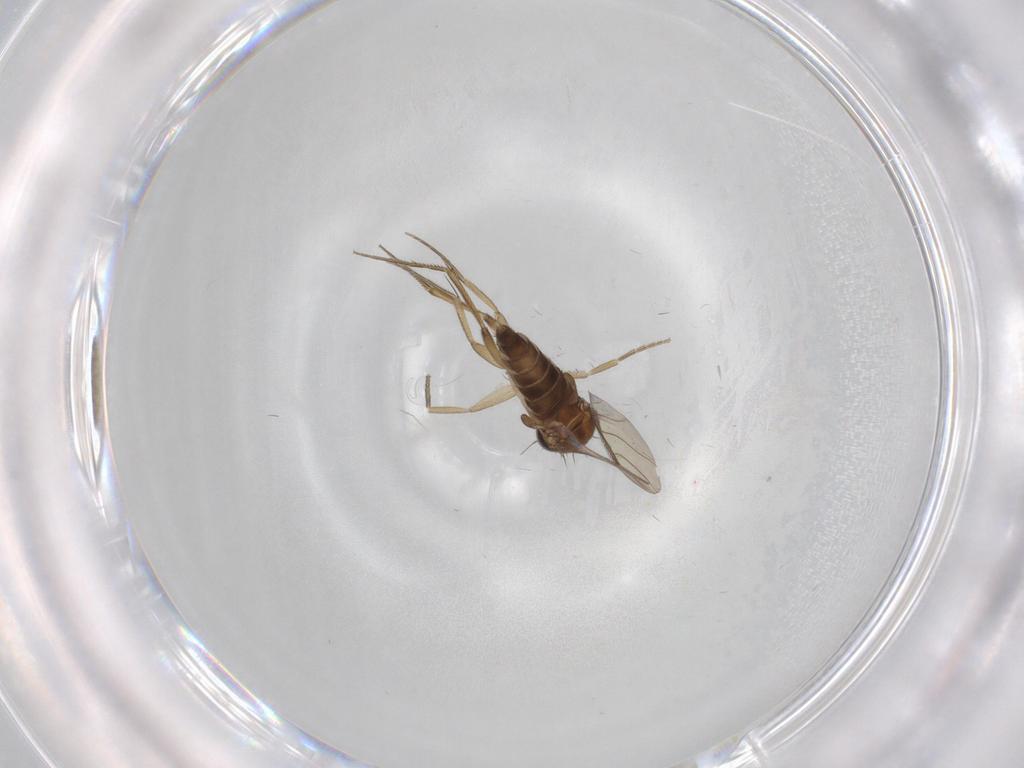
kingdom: Animalia
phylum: Arthropoda
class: Insecta
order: Diptera
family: Phoridae
